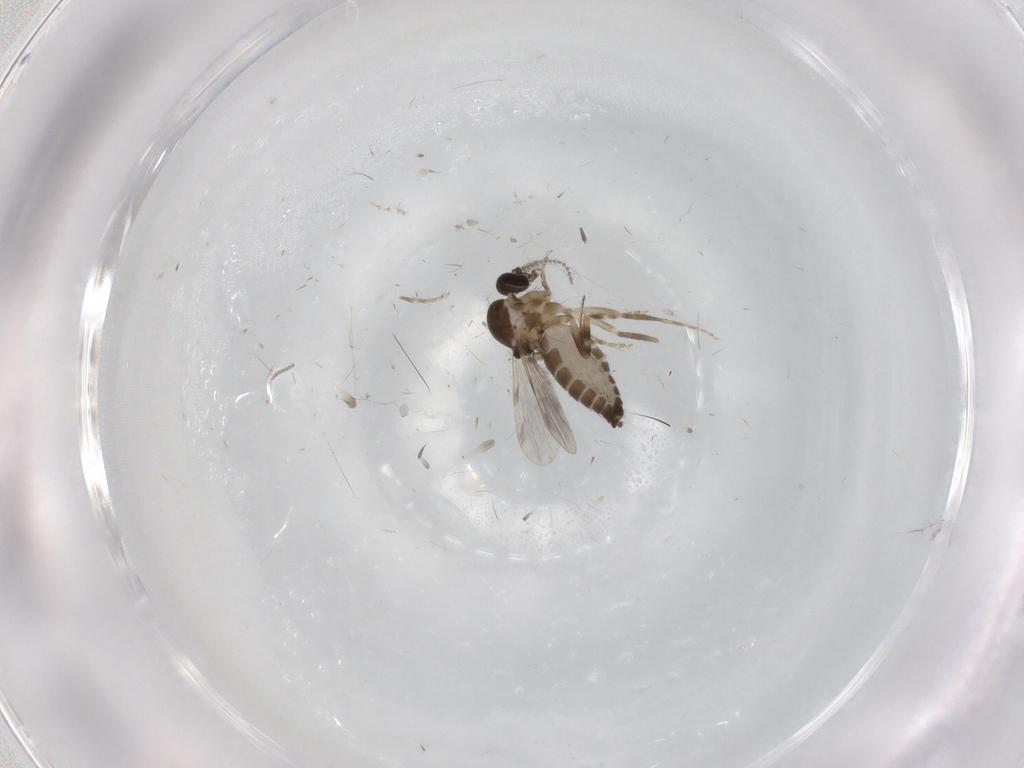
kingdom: Animalia
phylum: Arthropoda
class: Insecta
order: Diptera
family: Ceratopogonidae
